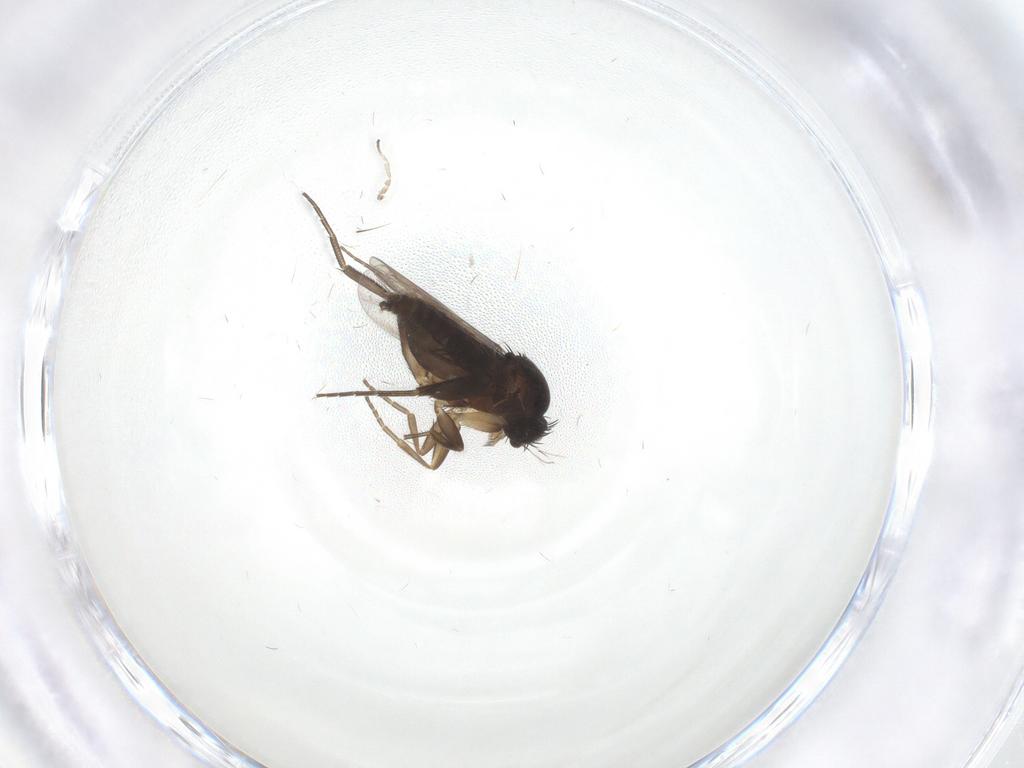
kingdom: Animalia
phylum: Arthropoda
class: Insecta
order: Diptera
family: Phoridae
